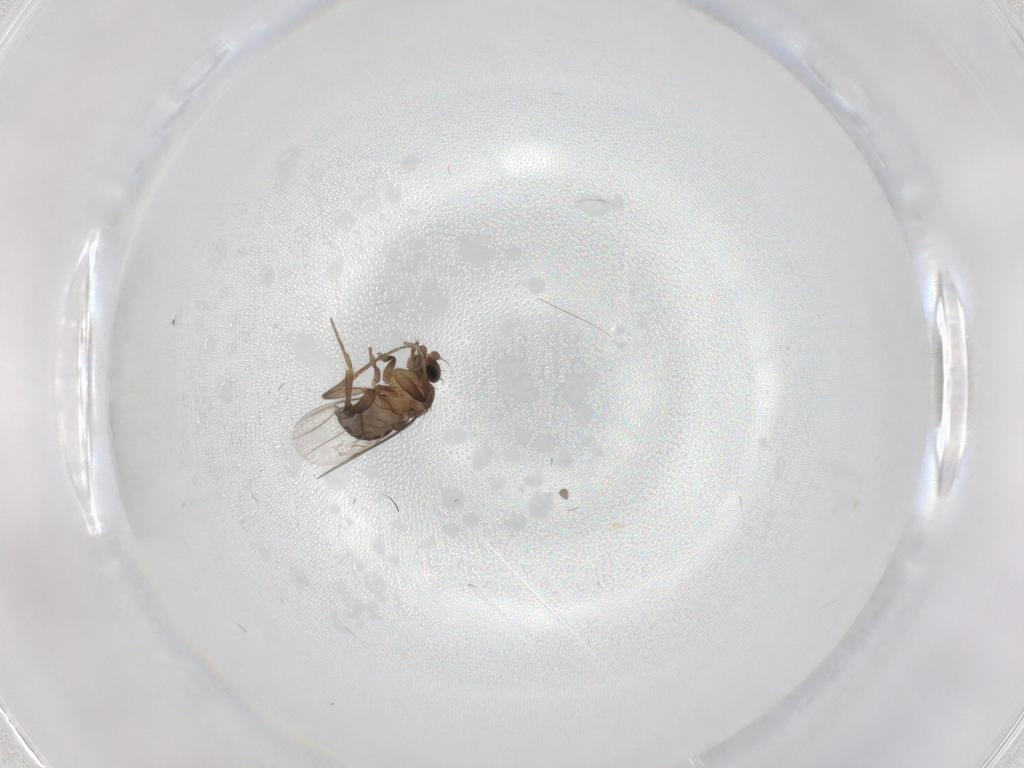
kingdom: Animalia
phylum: Arthropoda
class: Insecta
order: Diptera
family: Phoridae
